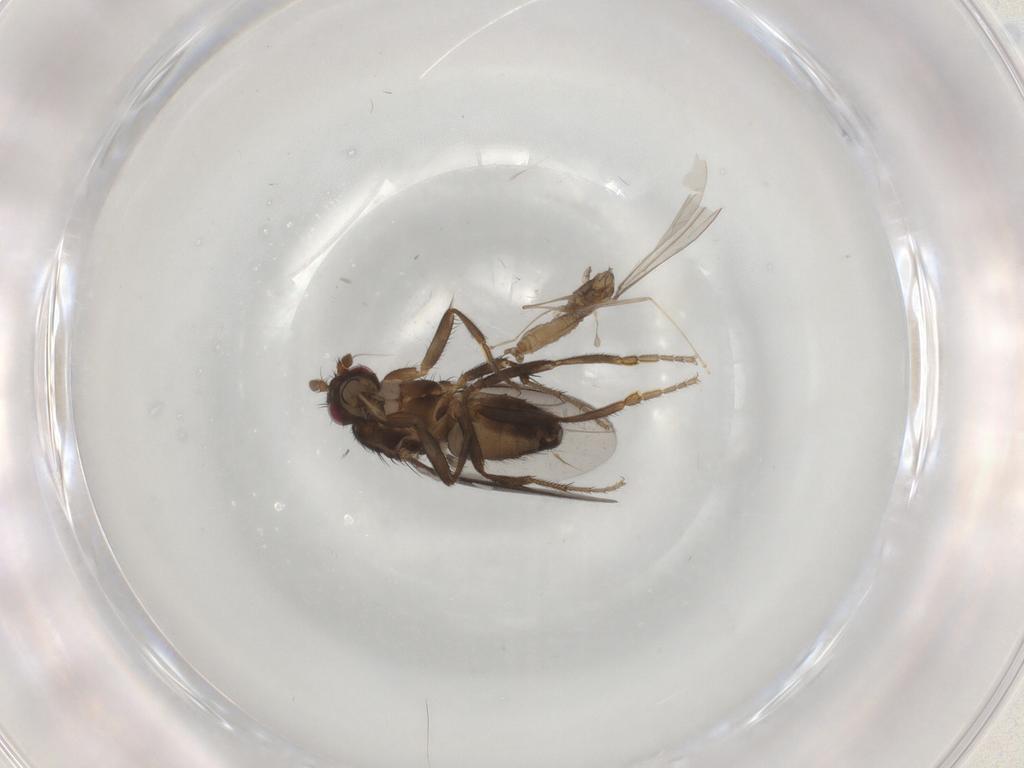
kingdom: Animalia
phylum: Arthropoda
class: Insecta
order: Diptera
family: Cecidomyiidae
